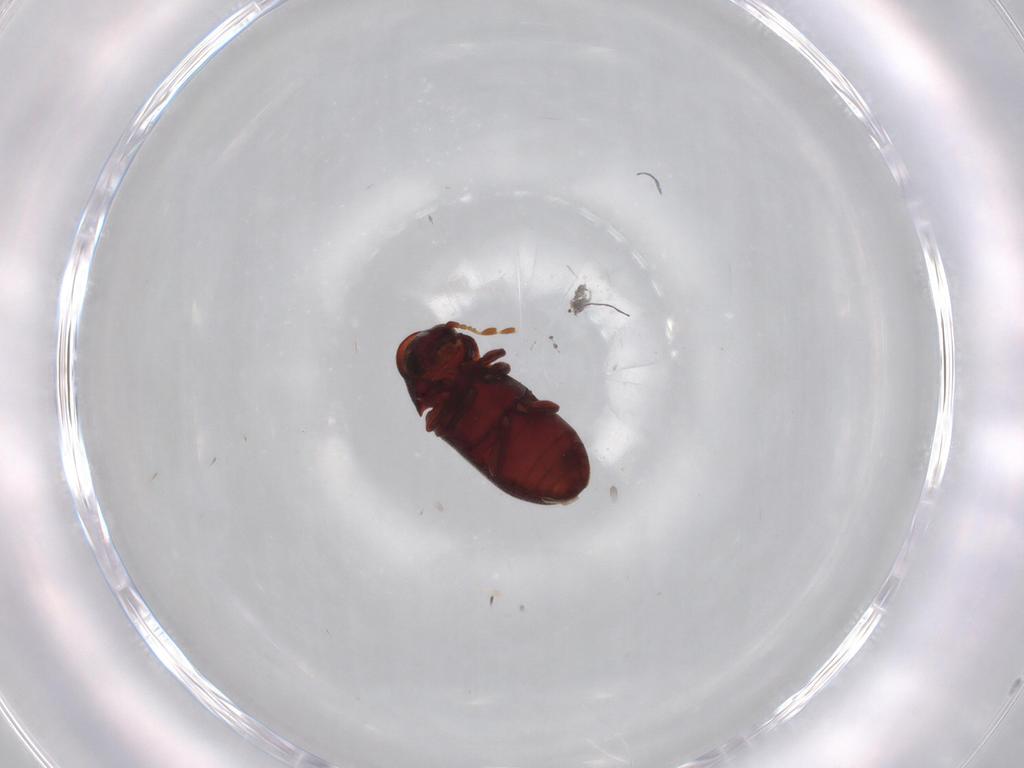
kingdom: Animalia
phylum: Arthropoda
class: Insecta
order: Coleoptera
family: Ptinidae
